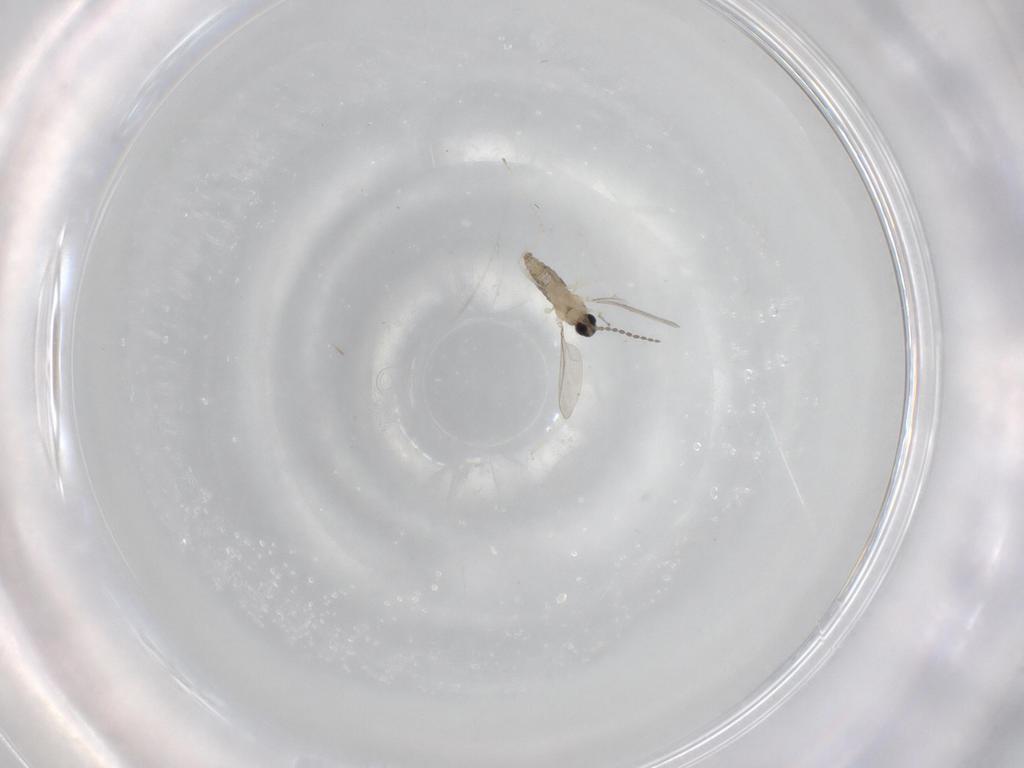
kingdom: Animalia
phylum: Arthropoda
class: Insecta
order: Diptera
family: Cecidomyiidae
